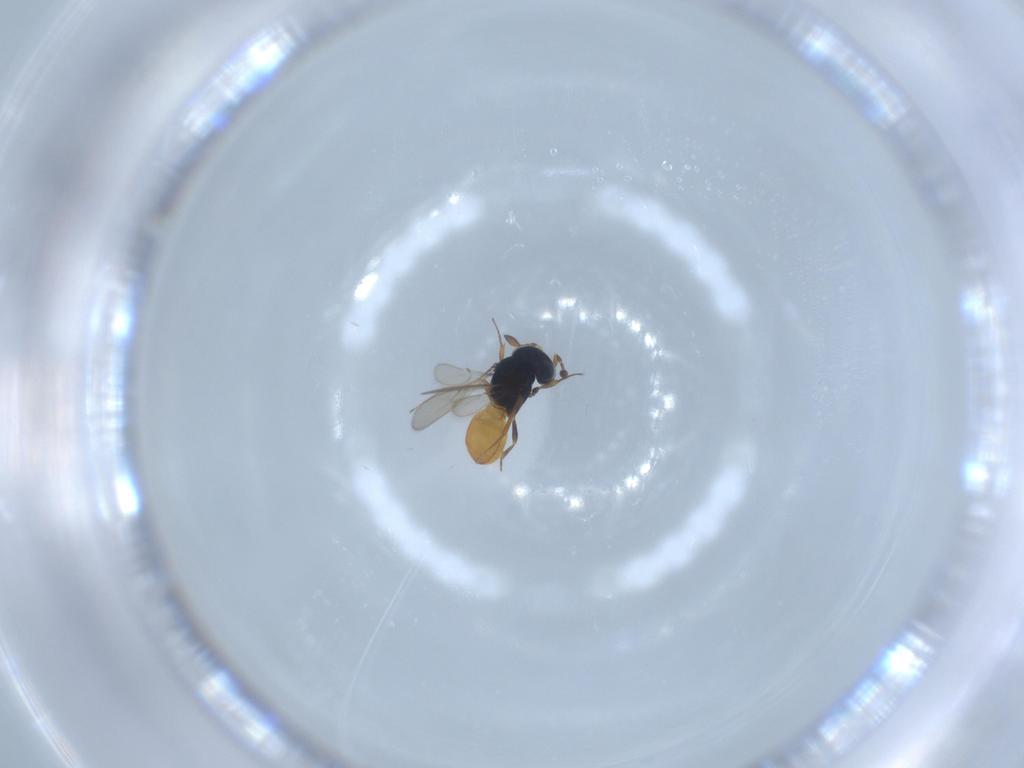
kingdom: Animalia
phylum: Arthropoda
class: Insecta
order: Hymenoptera
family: Scelionidae
